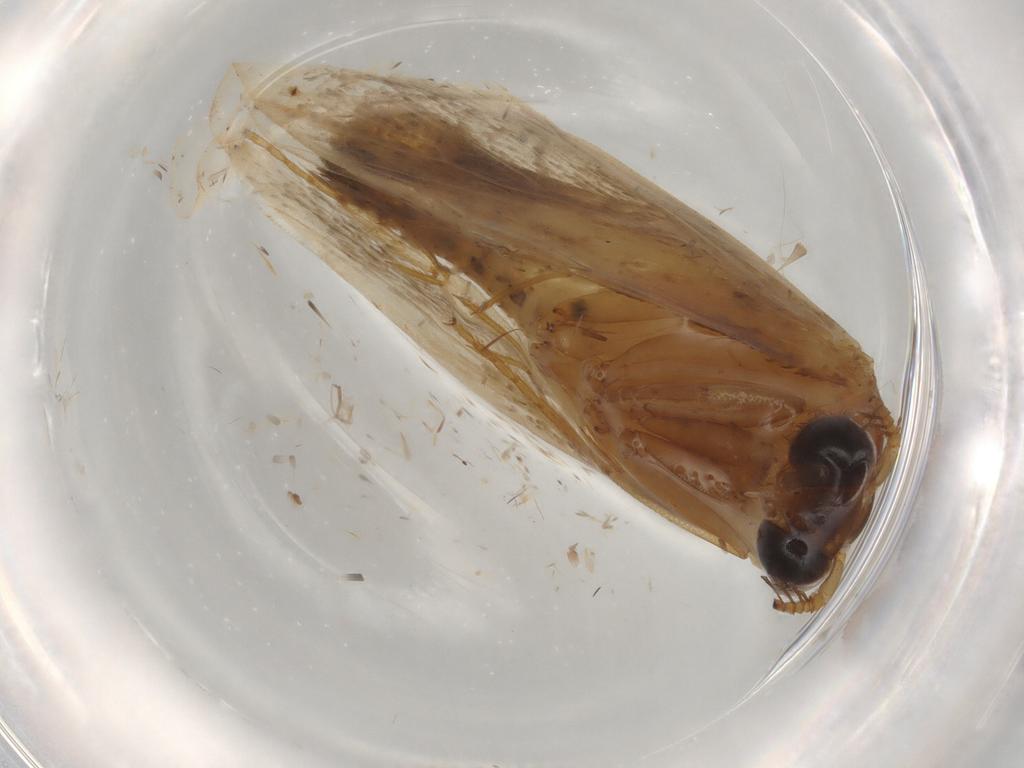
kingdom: Animalia
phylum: Arthropoda
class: Insecta
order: Lepidoptera
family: Eriocottidae
